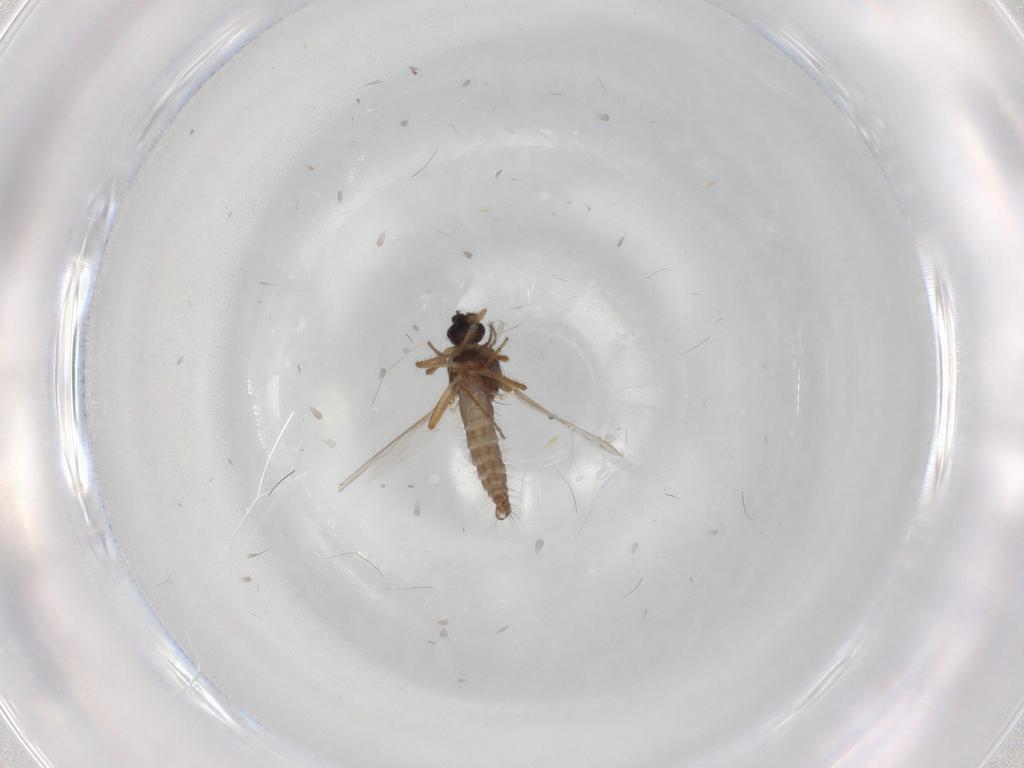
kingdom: Animalia
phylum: Arthropoda
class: Insecta
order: Diptera
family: Ceratopogonidae
